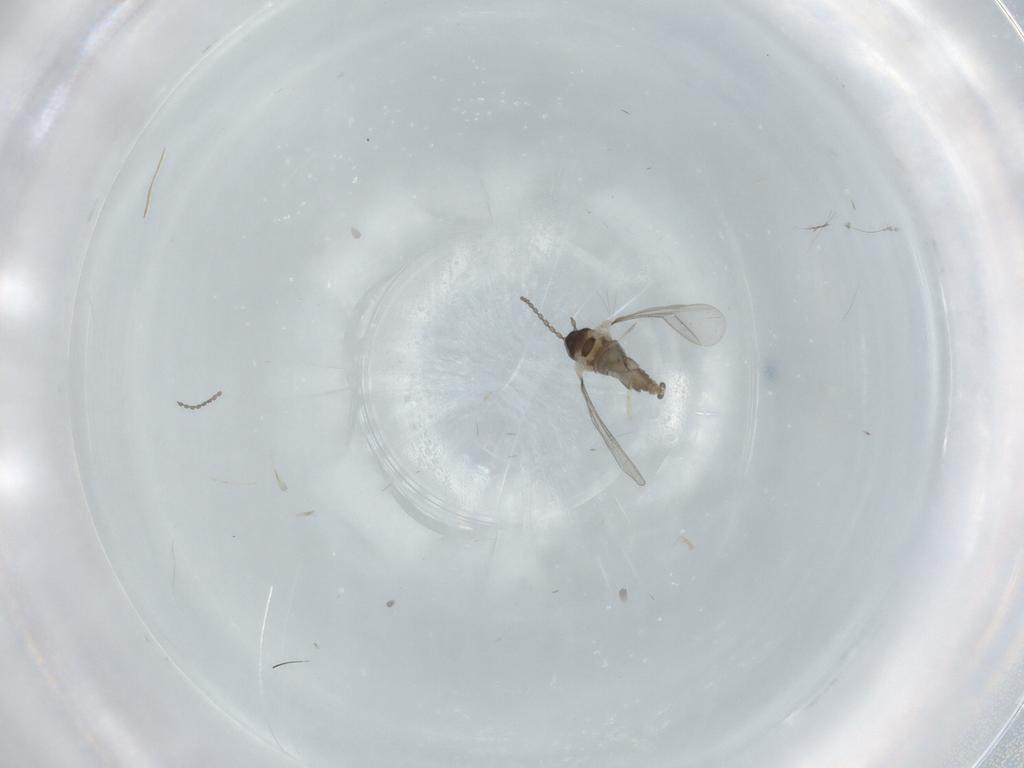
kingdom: Animalia
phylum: Arthropoda
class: Insecta
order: Diptera
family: Cecidomyiidae
